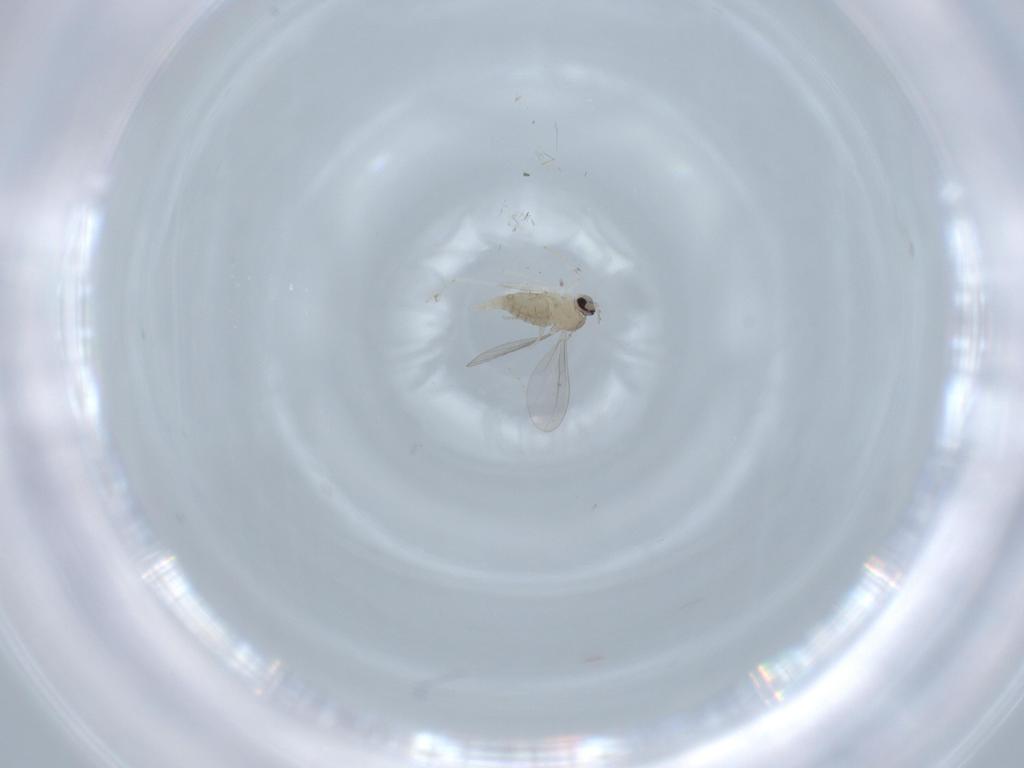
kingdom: Animalia
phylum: Arthropoda
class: Insecta
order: Diptera
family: Cecidomyiidae
